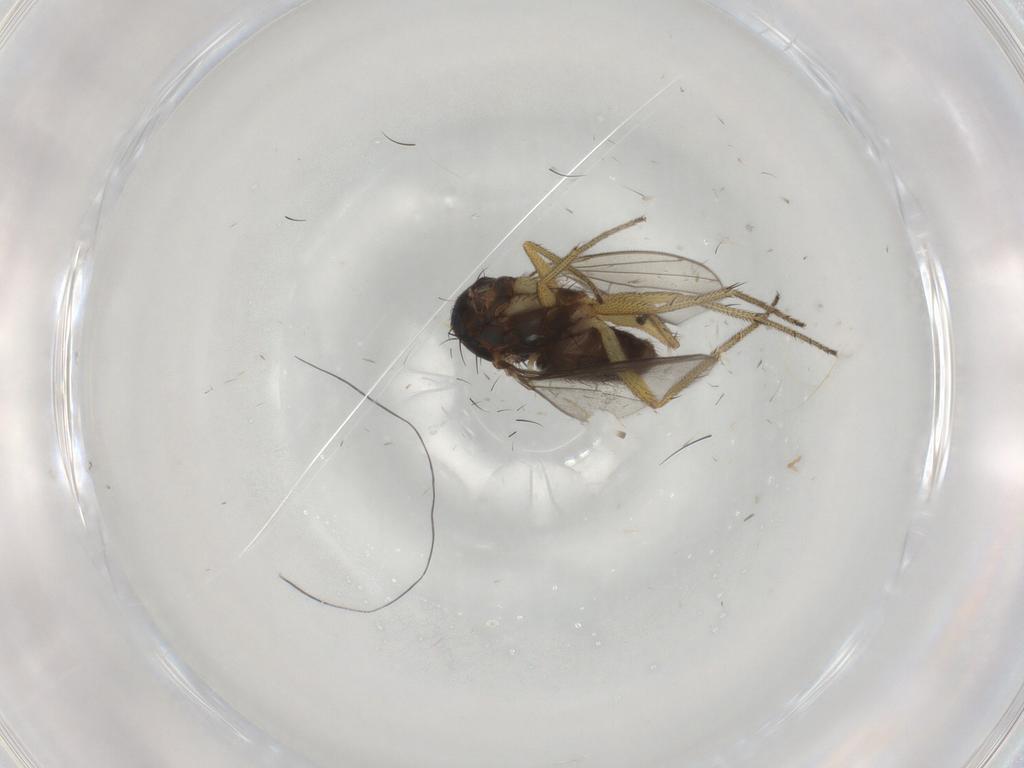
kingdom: Animalia
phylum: Arthropoda
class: Insecta
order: Diptera
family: Dolichopodidae
